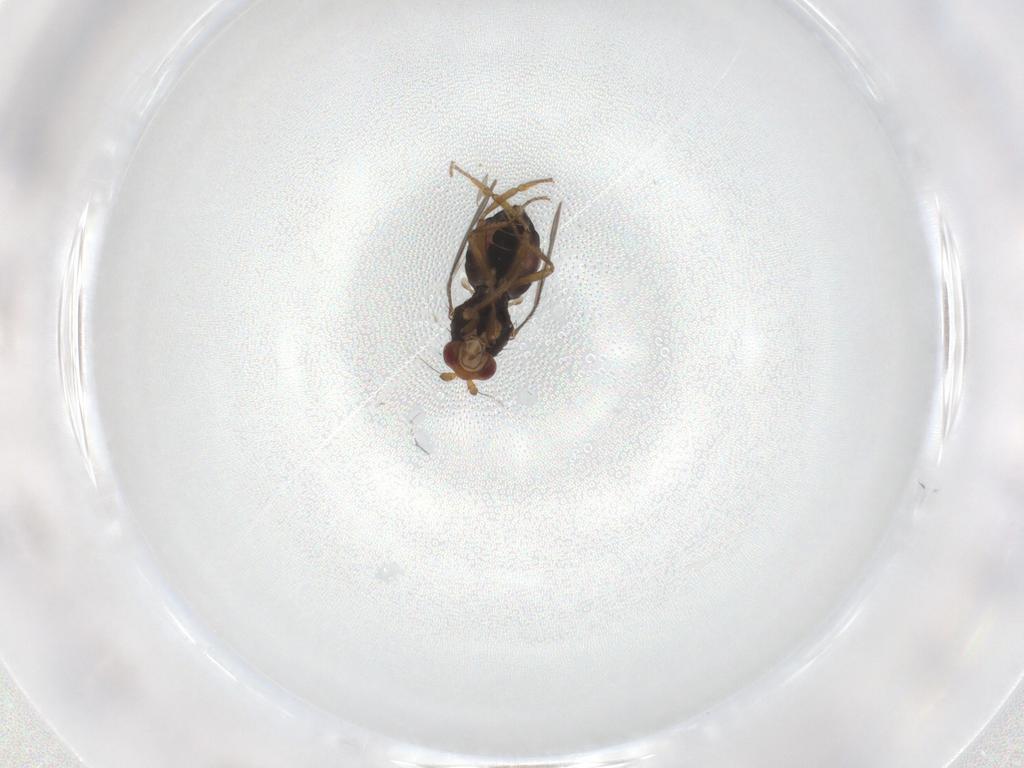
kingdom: Animalia
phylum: Arthropoda
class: Insecta
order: Diptera
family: Sphaeroceridae
